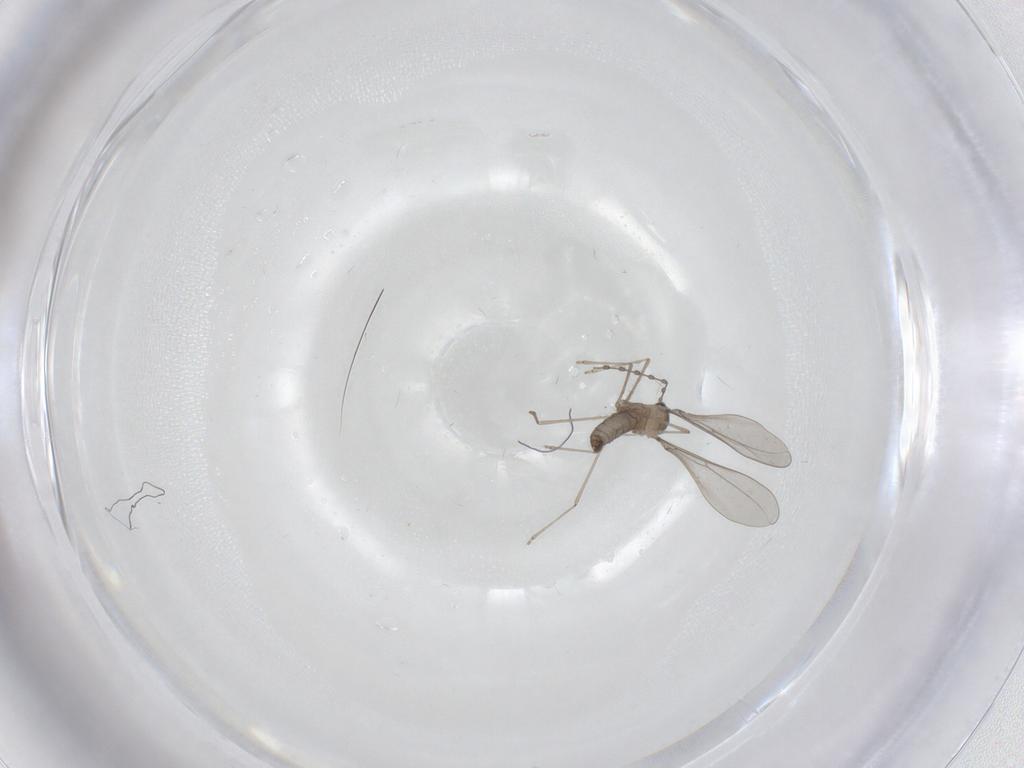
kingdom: Animalia
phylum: Arthropoda
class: Insecta
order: Diptera
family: Cecidomyiidae
